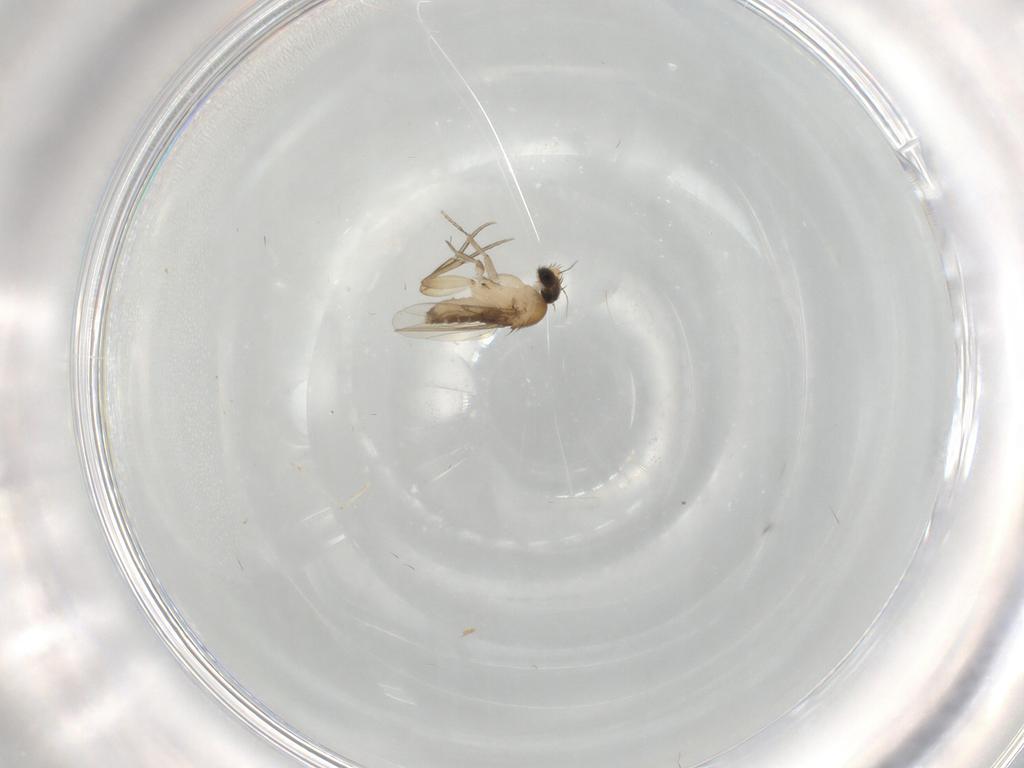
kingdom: Animalia
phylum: Arthropoda
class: Insecta
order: Diptera
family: Phoridae
